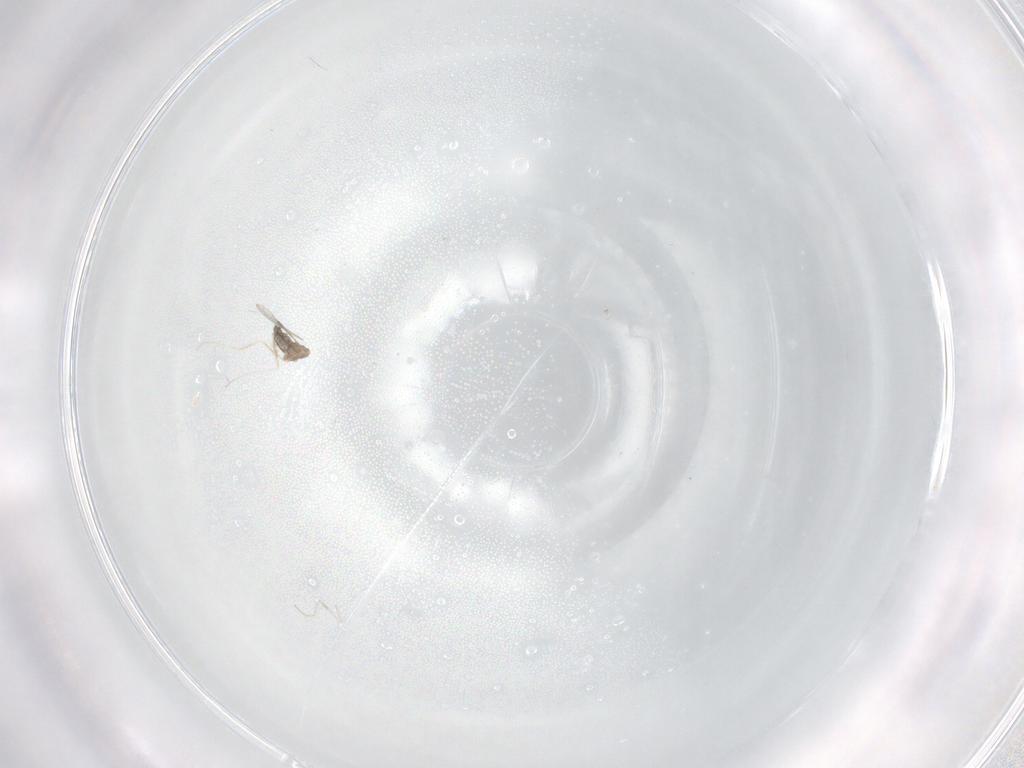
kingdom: Animalia
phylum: Arthropoda
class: Insecta
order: Diptera
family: Cecidomyiidae
